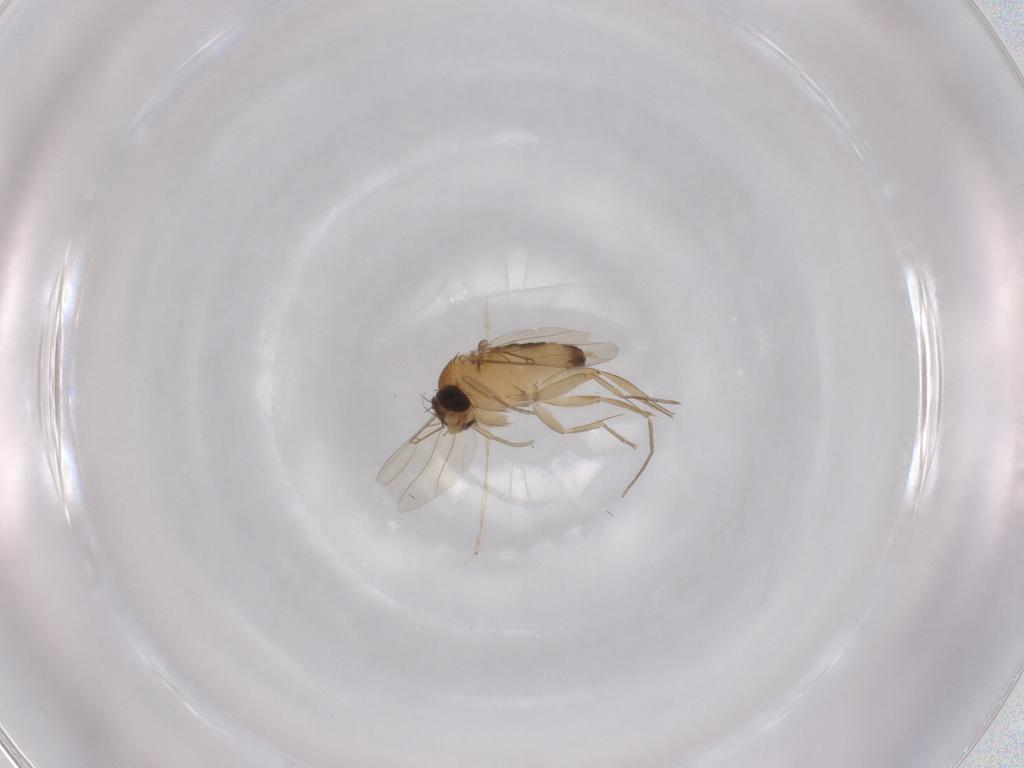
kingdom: Animalia
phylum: Arthropoda
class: Insecta
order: Diptera
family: Phoridae
